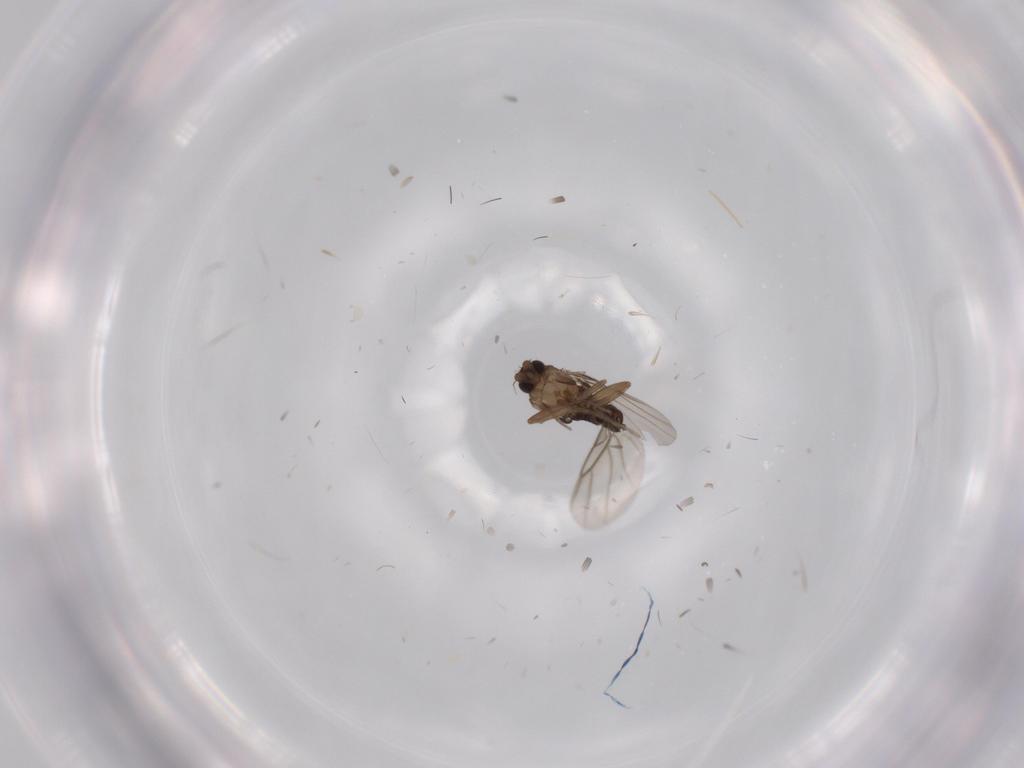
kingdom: Animalia
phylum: Arthropoda
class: Insecta
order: Diptera
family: Phoridae
